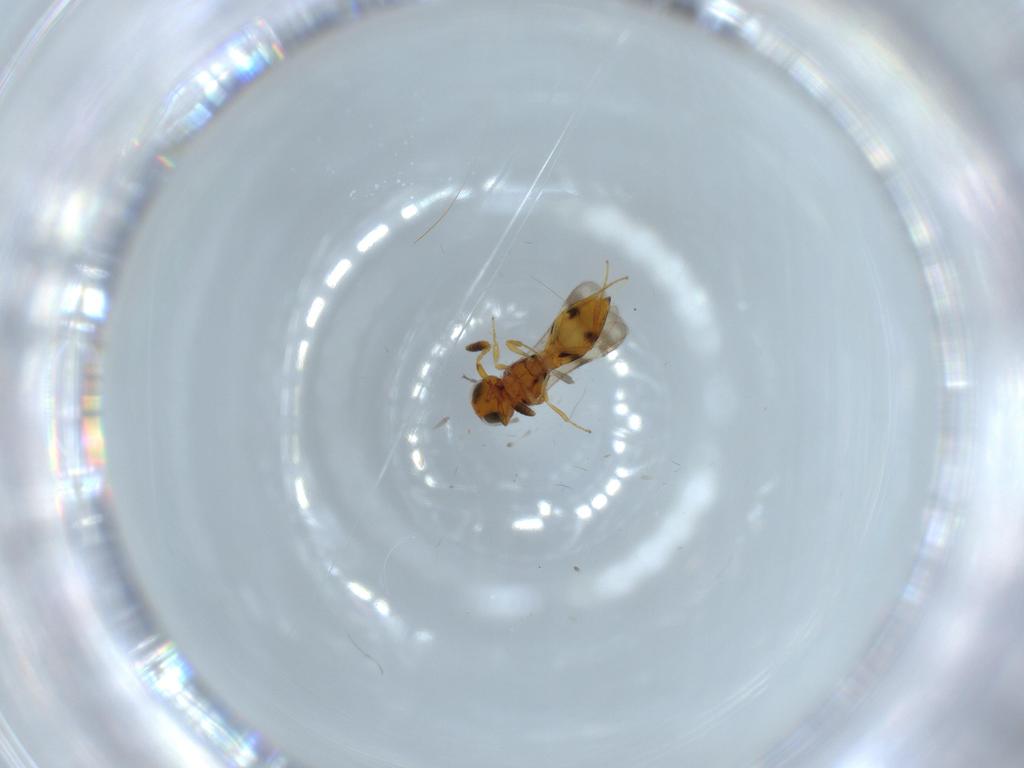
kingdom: Animalia
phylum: Arthropoda
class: Insecta
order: Hymenoptera
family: Scelionidae
